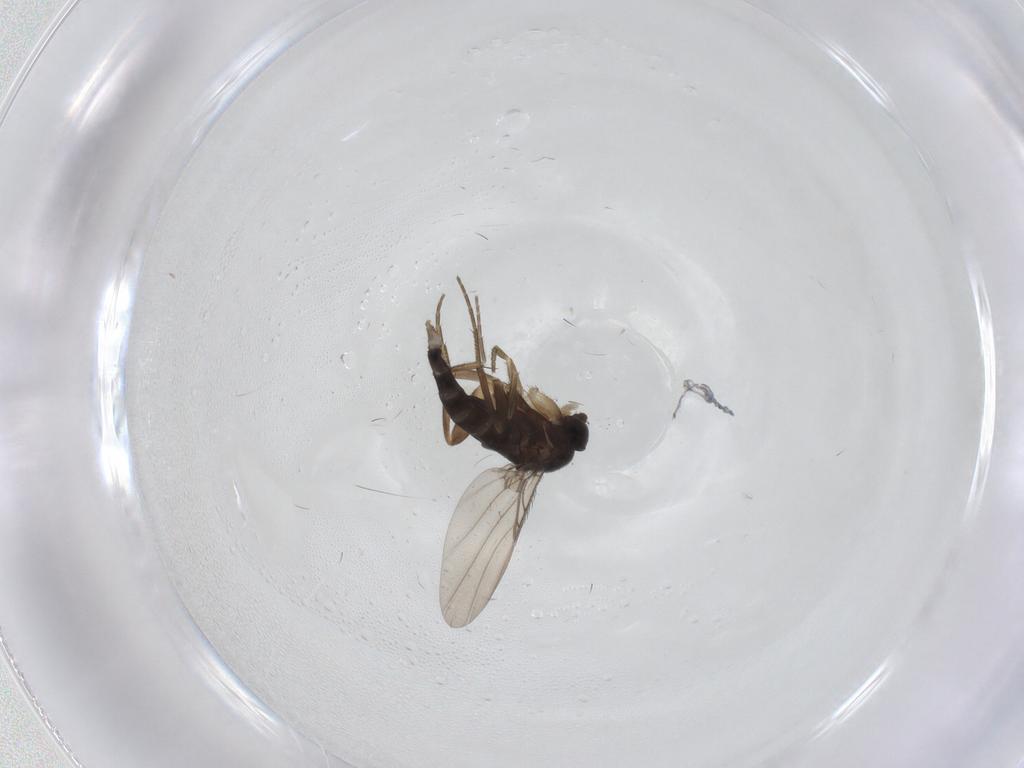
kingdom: Animalia
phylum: Arthropoda
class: Insecta
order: Diptera
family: Phoridae
